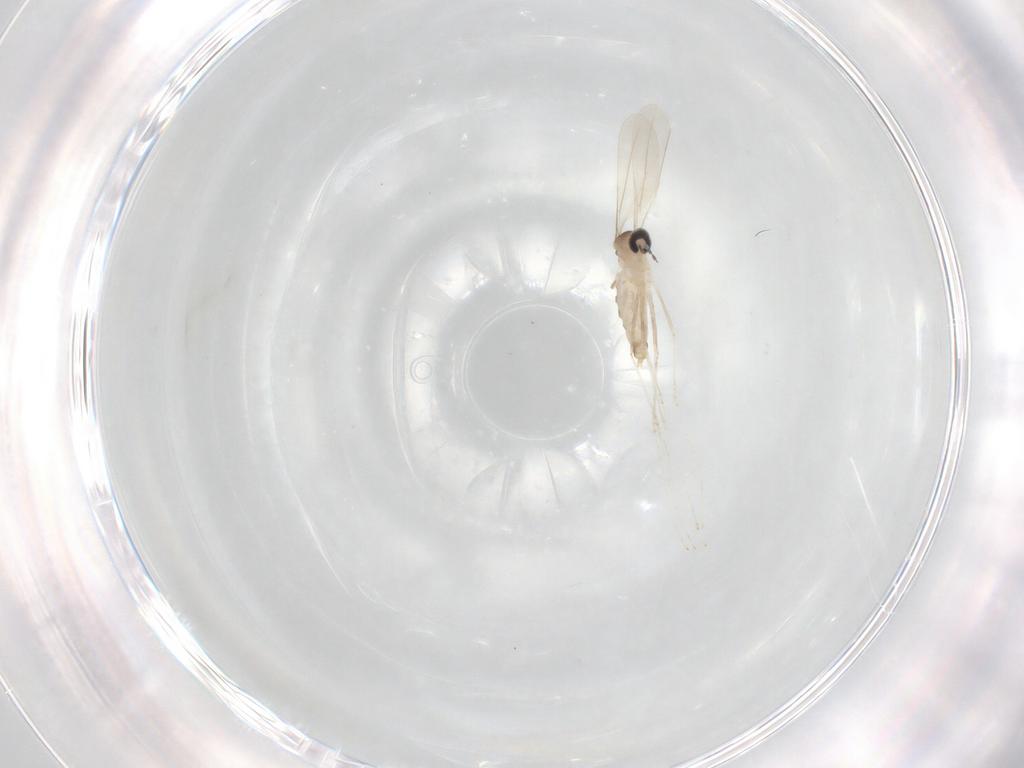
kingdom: Animalia
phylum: Arthropoda
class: Insecta
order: Diptera
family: Cecidomyiidae
